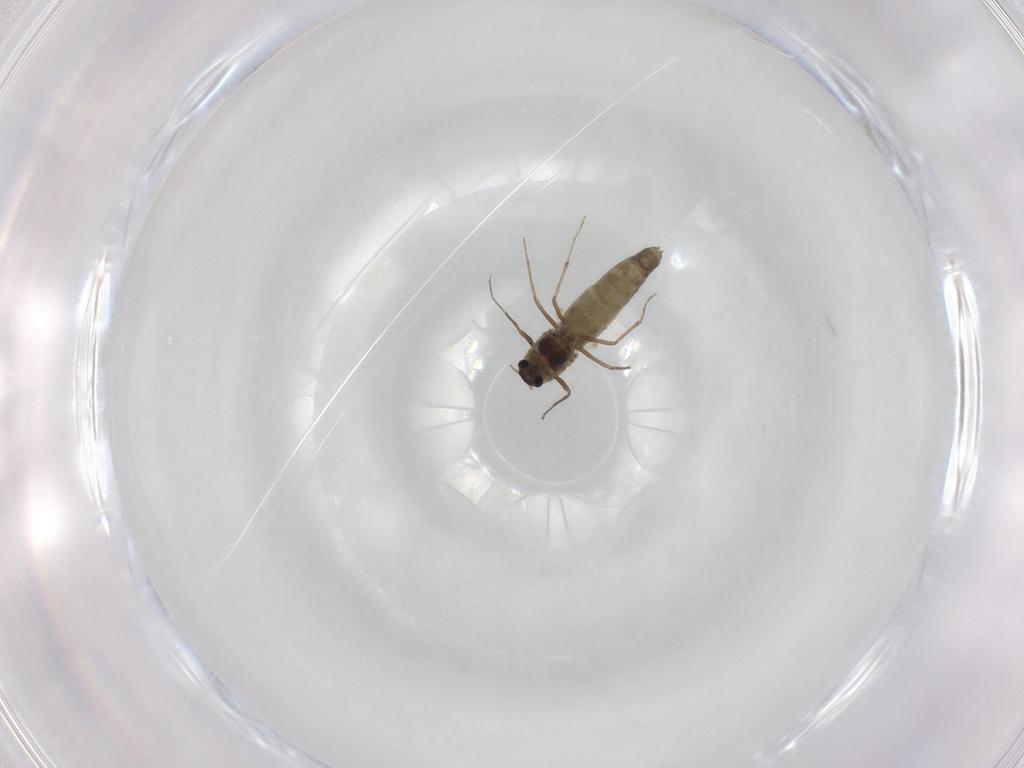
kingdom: Animalia
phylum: Arthropoda
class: Insecta
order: Diptera
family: Chironomidae
